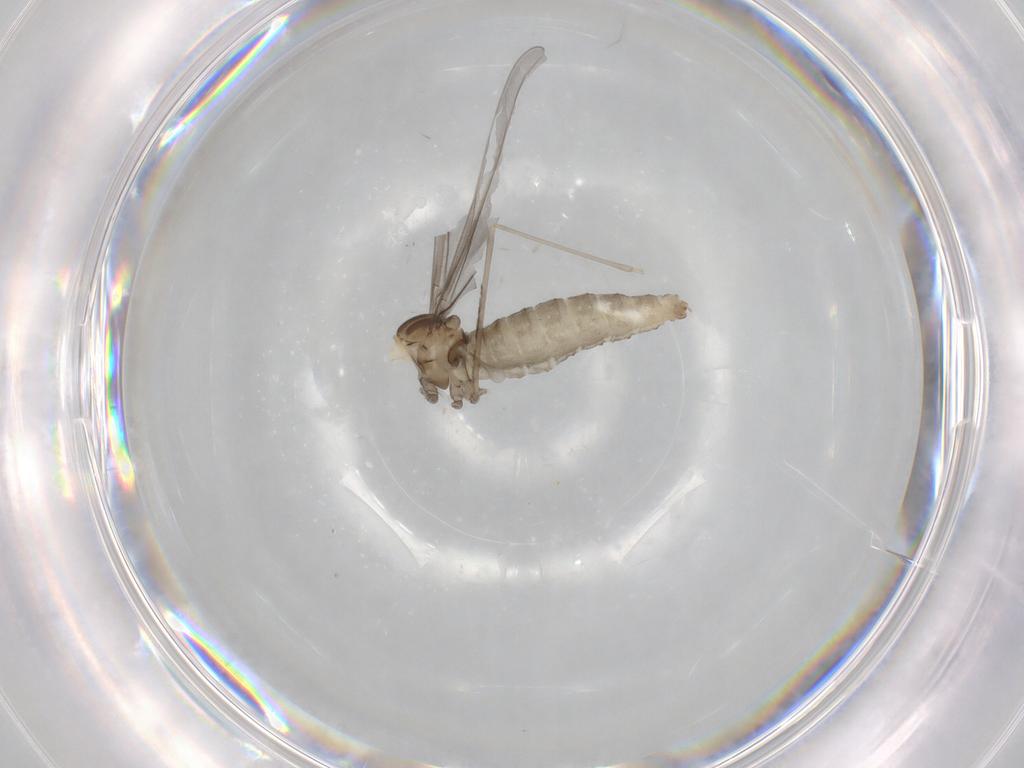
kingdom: Animalia
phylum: Arthropoda
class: Insecta
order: Diptera
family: Cecidomyiidae
